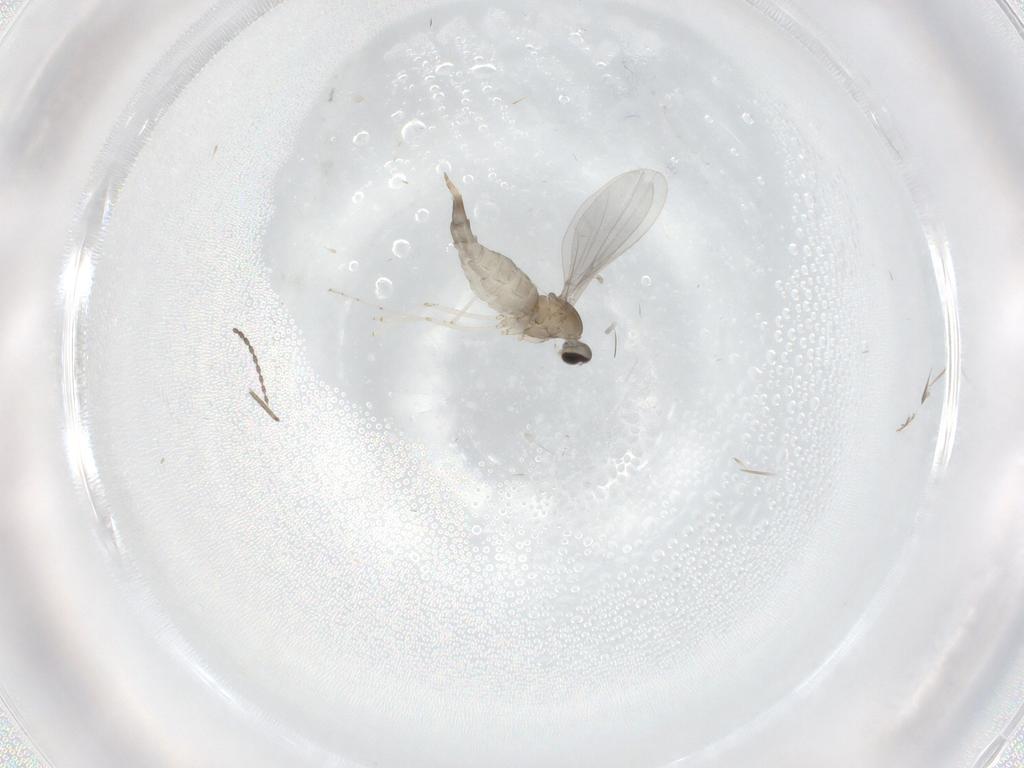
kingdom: Animalia
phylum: Arthropoda
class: Insecta
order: Diptera
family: Cecidomyiidae
